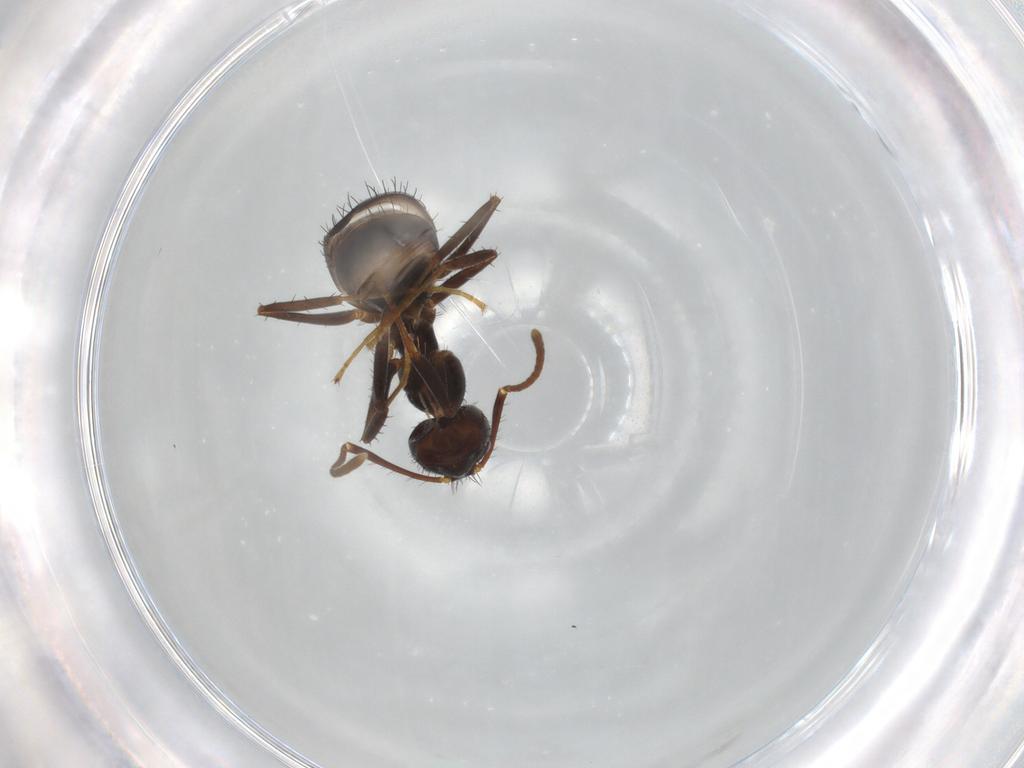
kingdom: Animalia
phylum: Arthropoda
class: Insecta
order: Hymenoptera
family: Formicidae
